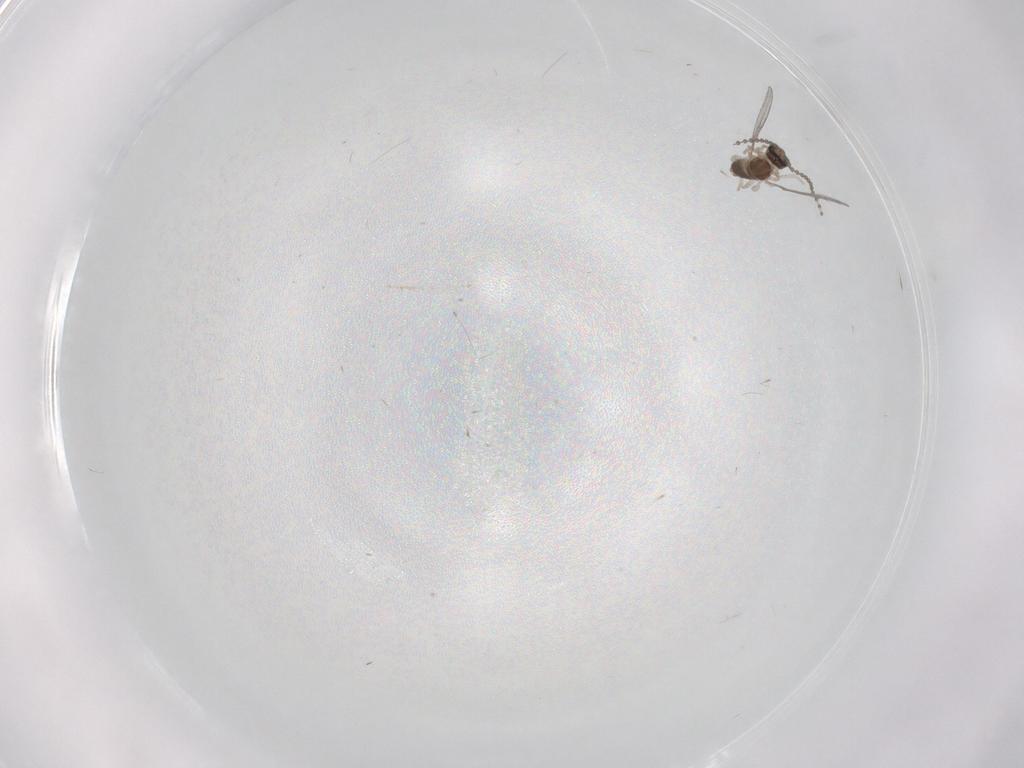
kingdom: Animalia
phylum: Arthropoda
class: Insecta
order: Diptera
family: Cecidomyiidae
